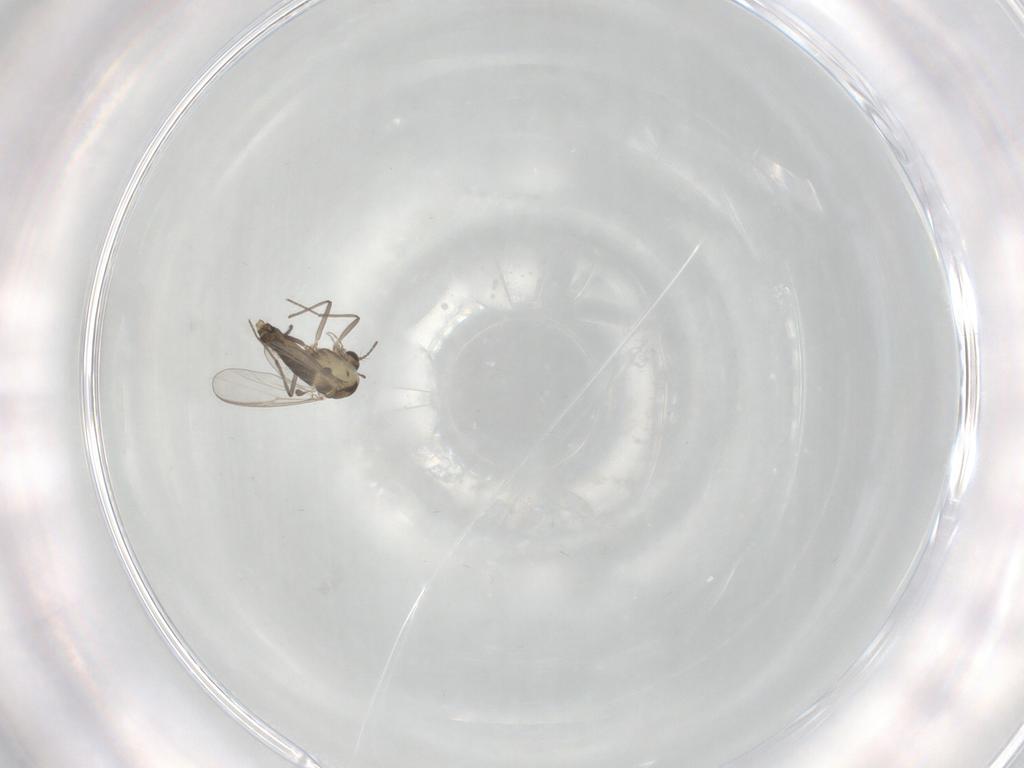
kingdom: Animalia
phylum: Arthropoda
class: Insecta
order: Diptera
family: Chironomidae
